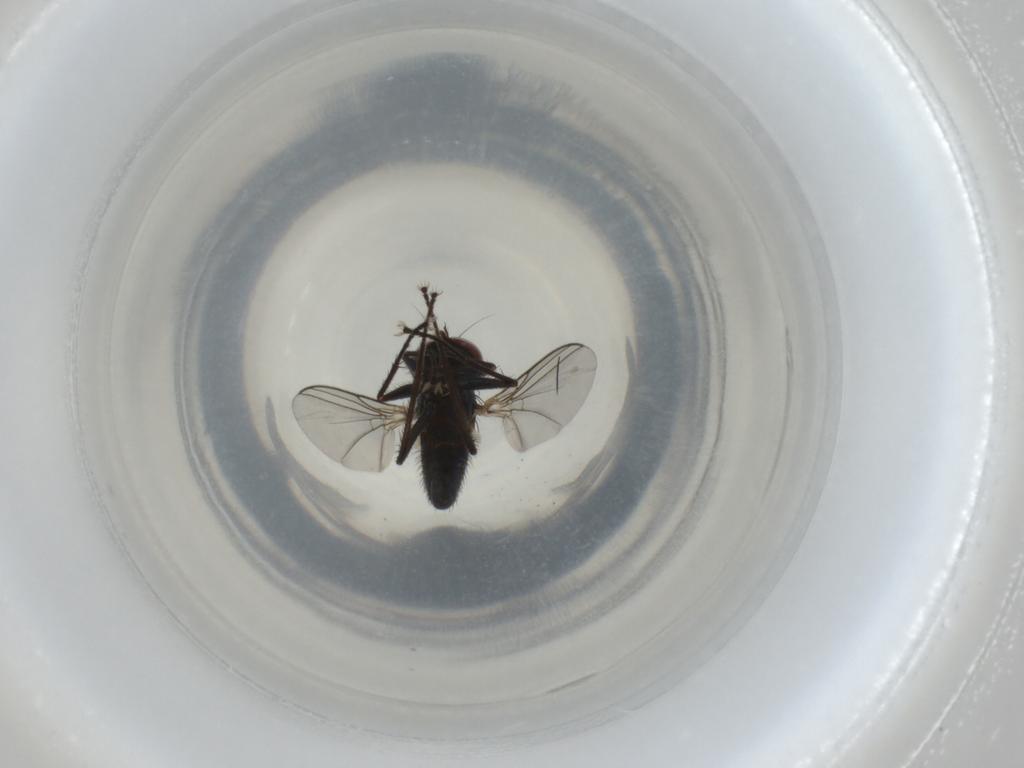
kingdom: Animalia
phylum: Arthropoda
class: Insecta
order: Diptera
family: Dolichopodidae
